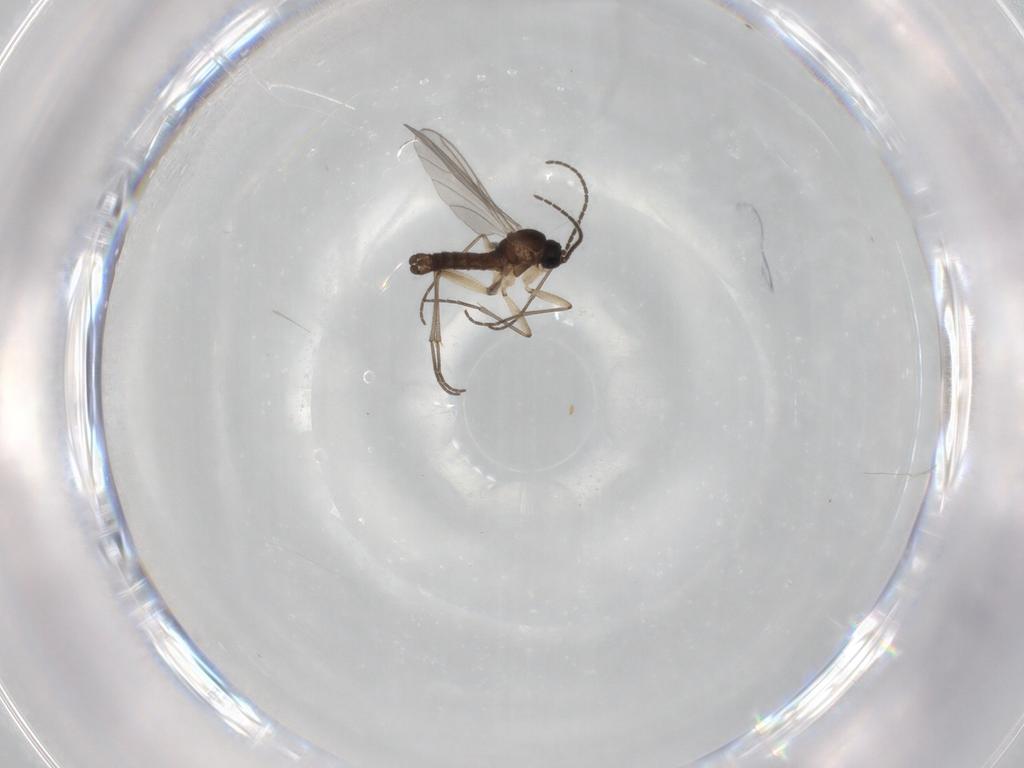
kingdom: Animalia
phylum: Arthropoda
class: Insecta
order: Diptera
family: Sciaridae
